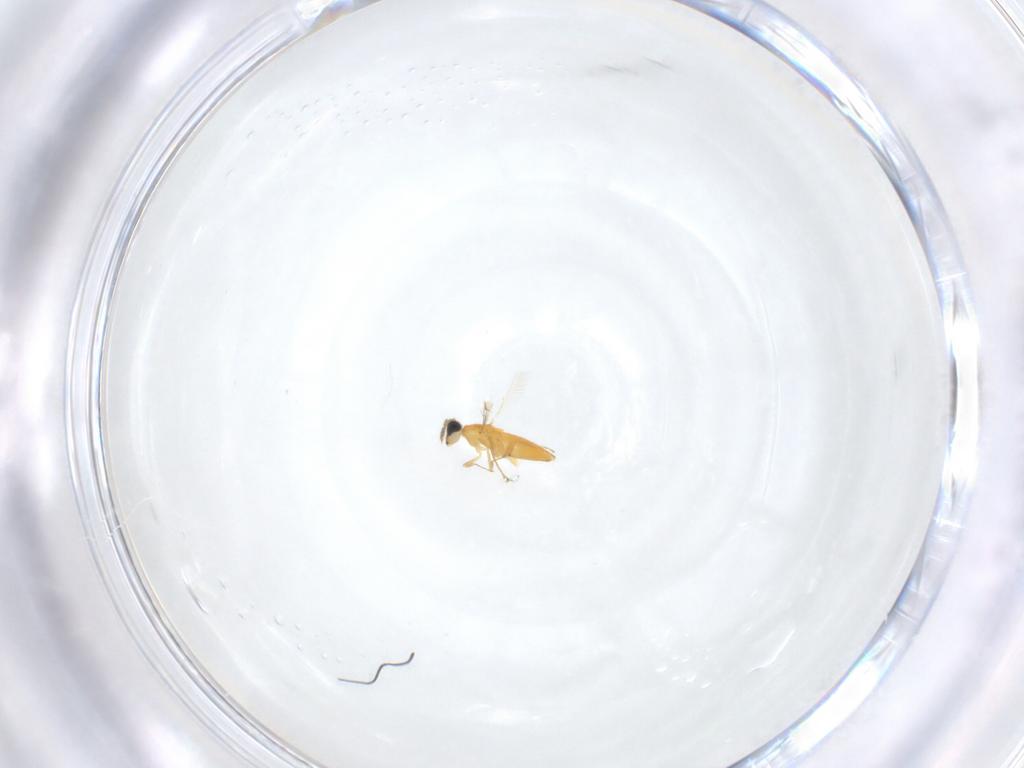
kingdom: Animalia
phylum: Arthropoda
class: Insecta
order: Hymenoptera
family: Trichogrammatidae
